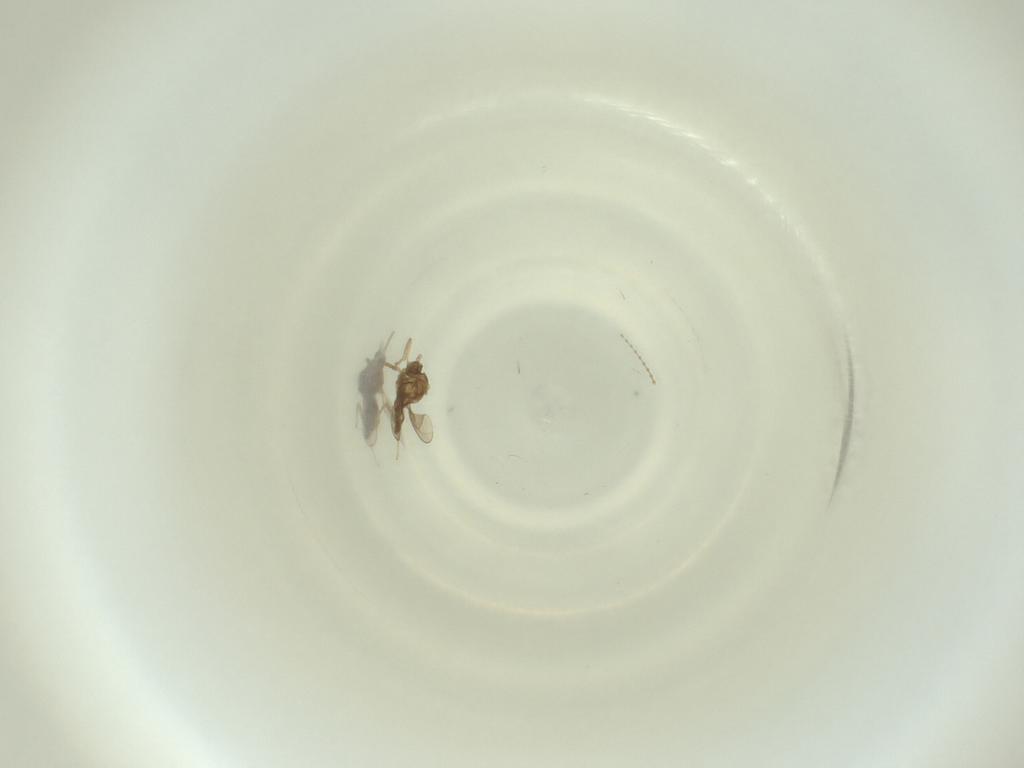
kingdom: Animalia
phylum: Arthropoda
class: Insecta
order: Diptera
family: Cecidomyiidae
